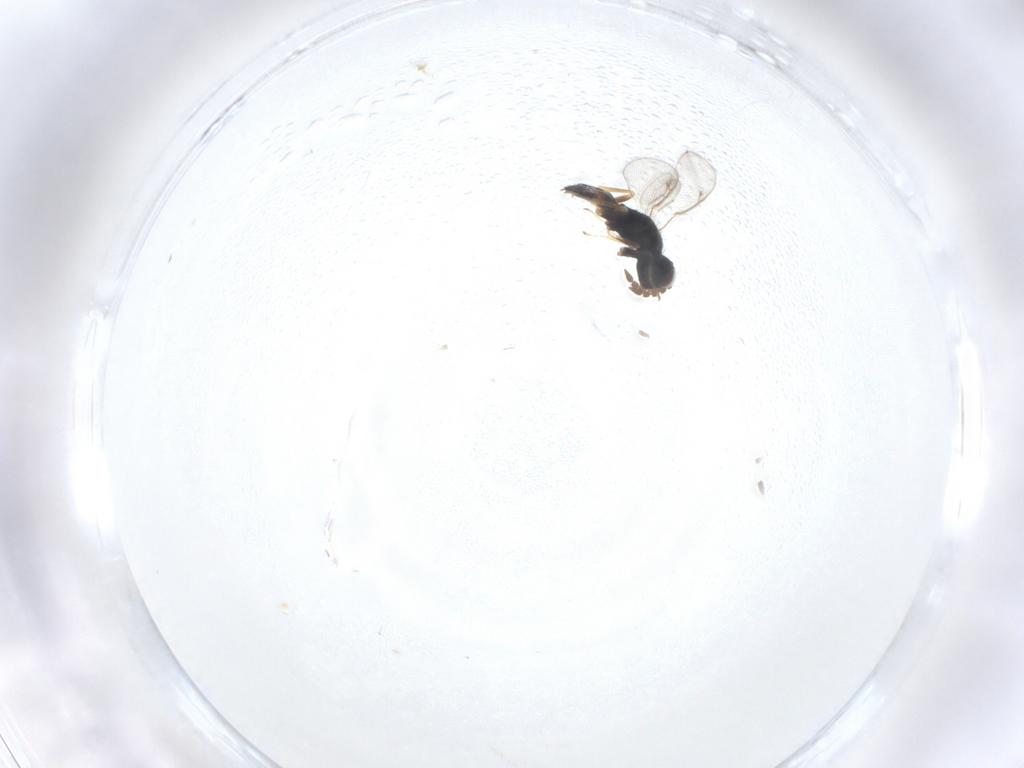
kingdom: Animalia
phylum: Arthropoda
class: Insecta
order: Hymenoptera
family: Eulophidae
